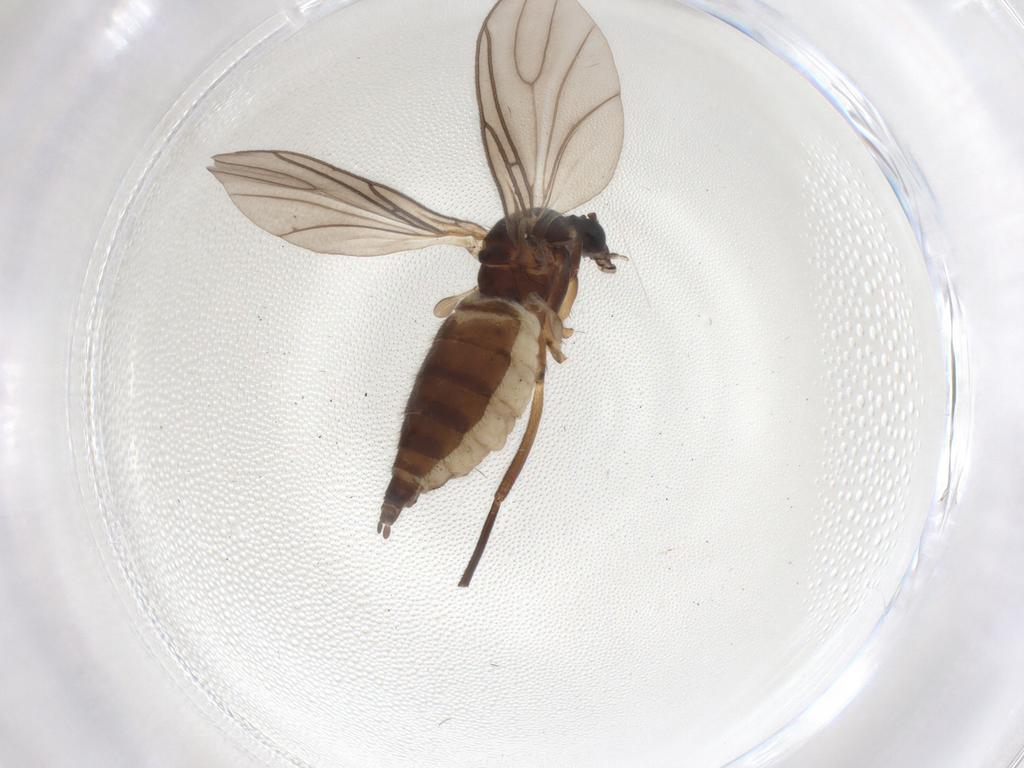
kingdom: Animalia
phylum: Arthropoda
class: Insecta
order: Diptera
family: Sciaridae
